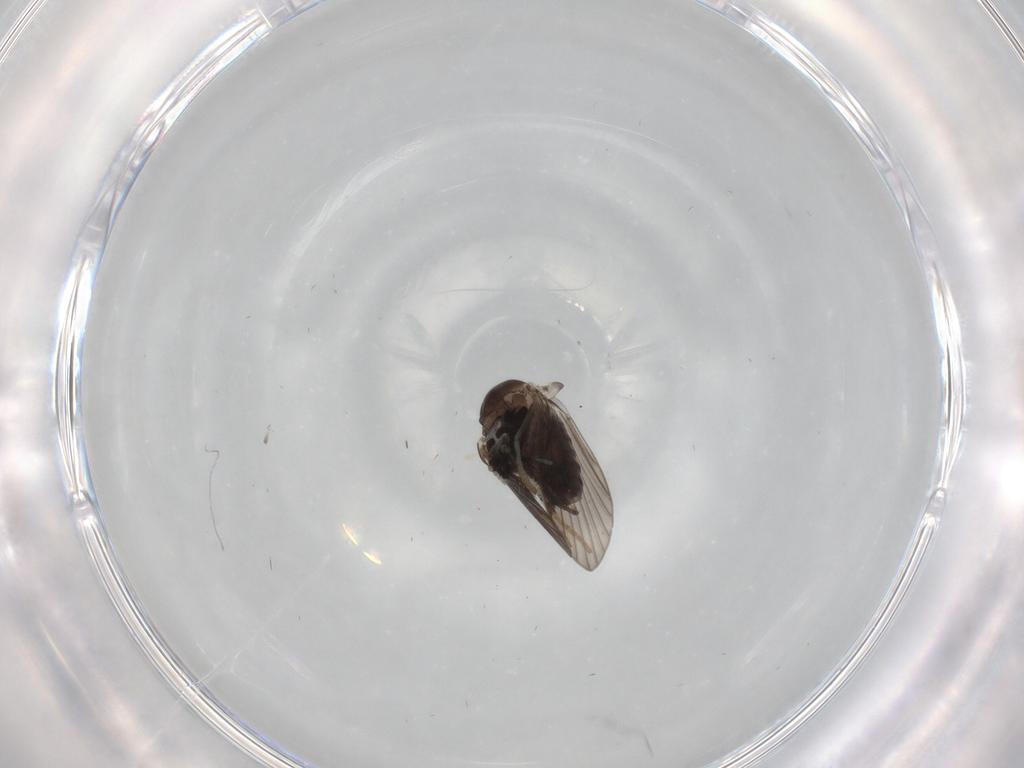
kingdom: Animalia
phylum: Arthropoda
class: Insecta
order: Diptera
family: Psychodidae
